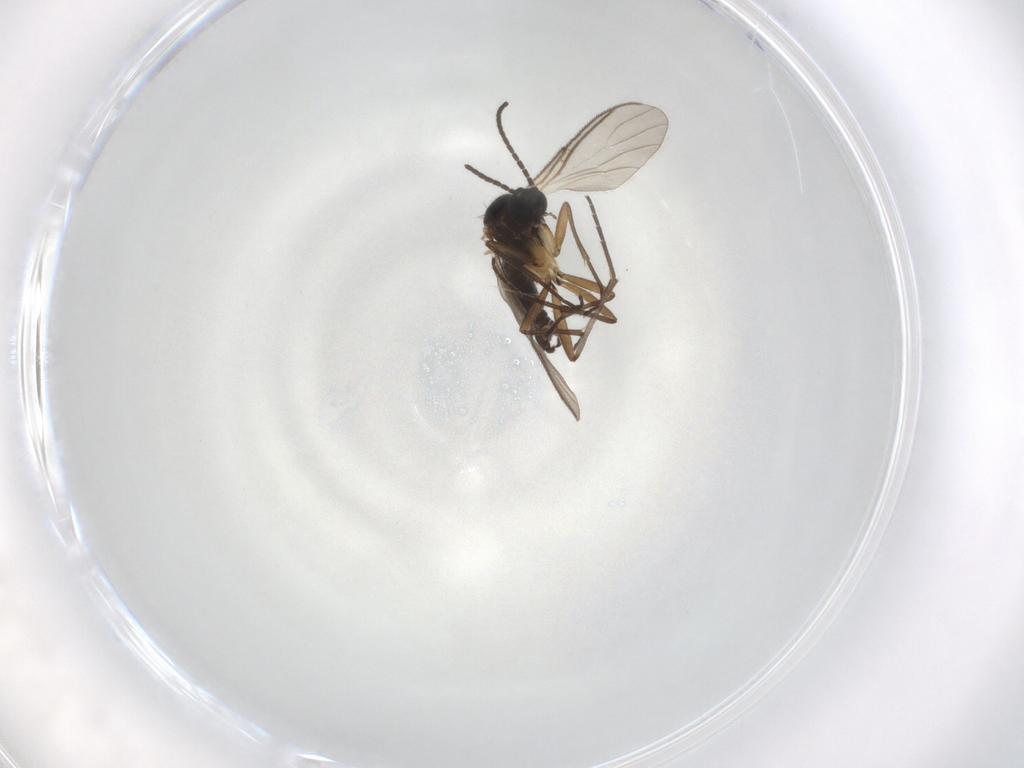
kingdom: Animalia
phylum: Arthropoda
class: Insecta
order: Diptera
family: Sciaridae
